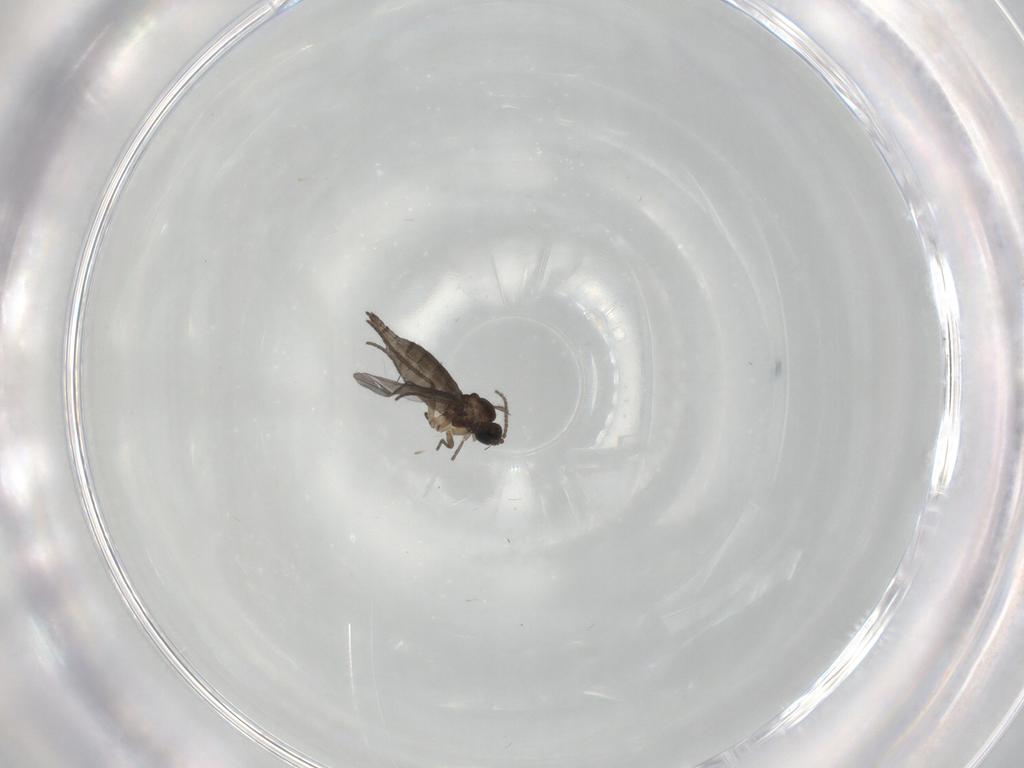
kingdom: Animalia
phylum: Arthropoda
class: Insecta
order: Diptera
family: Sciaridae
